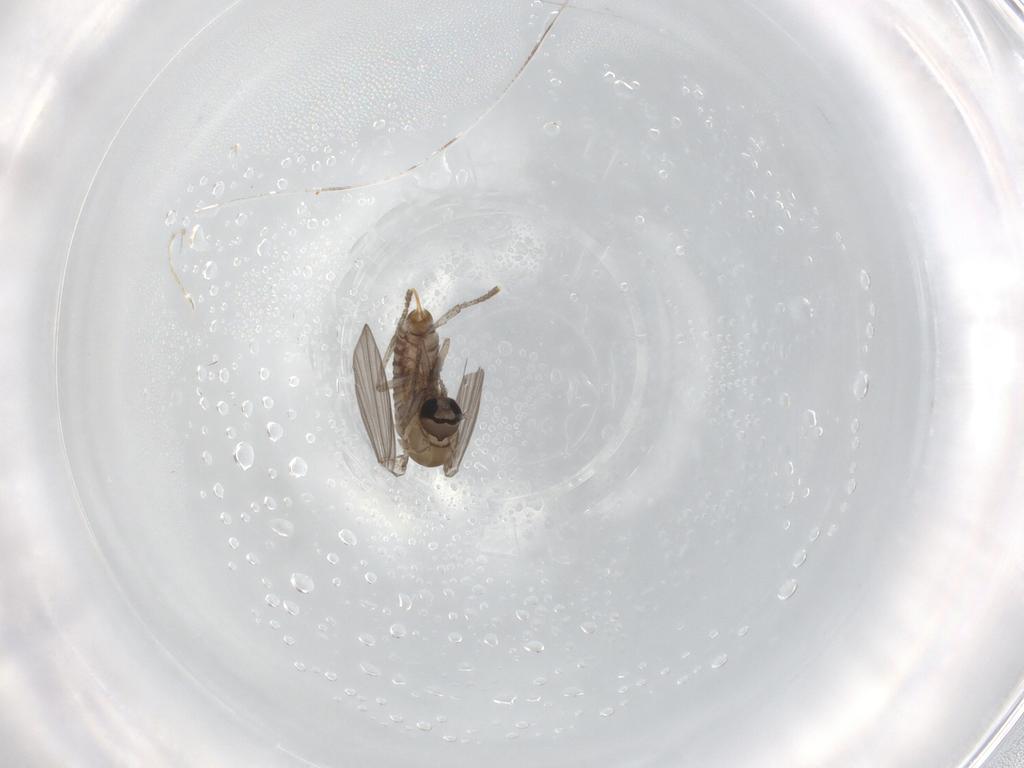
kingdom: Animalia
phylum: Arthropoda
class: Insecta
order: Diptera
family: Psychodidae
